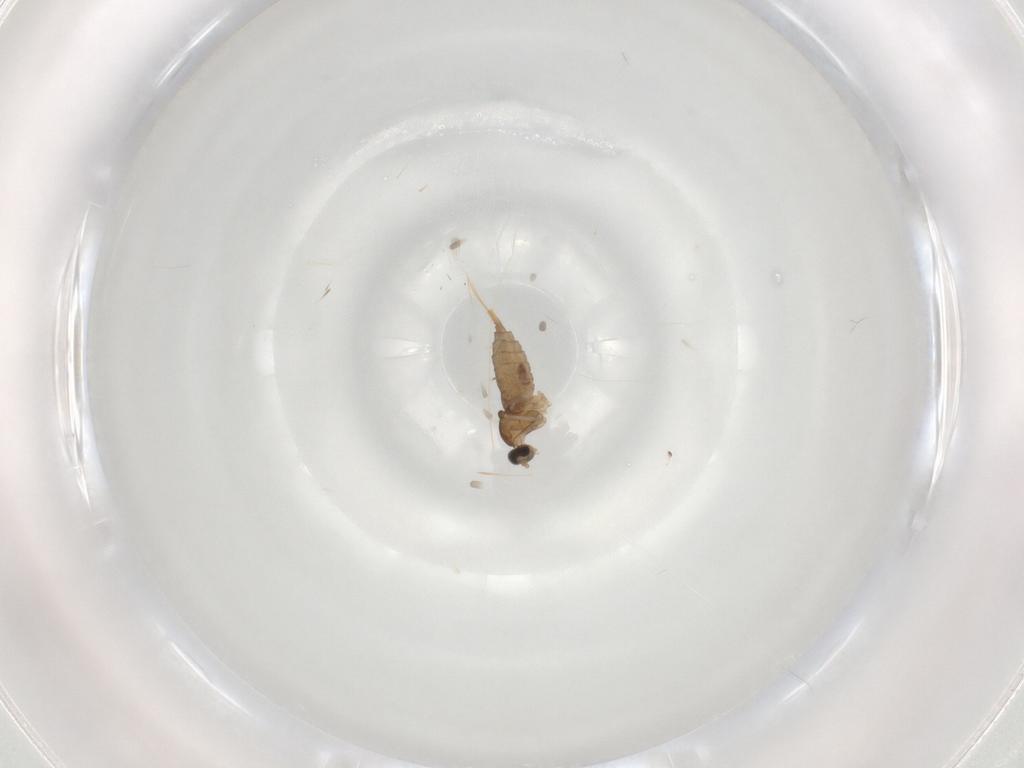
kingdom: Animalia
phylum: Arthropoda
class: Insecta
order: Diptera
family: Cecidomyiidae
